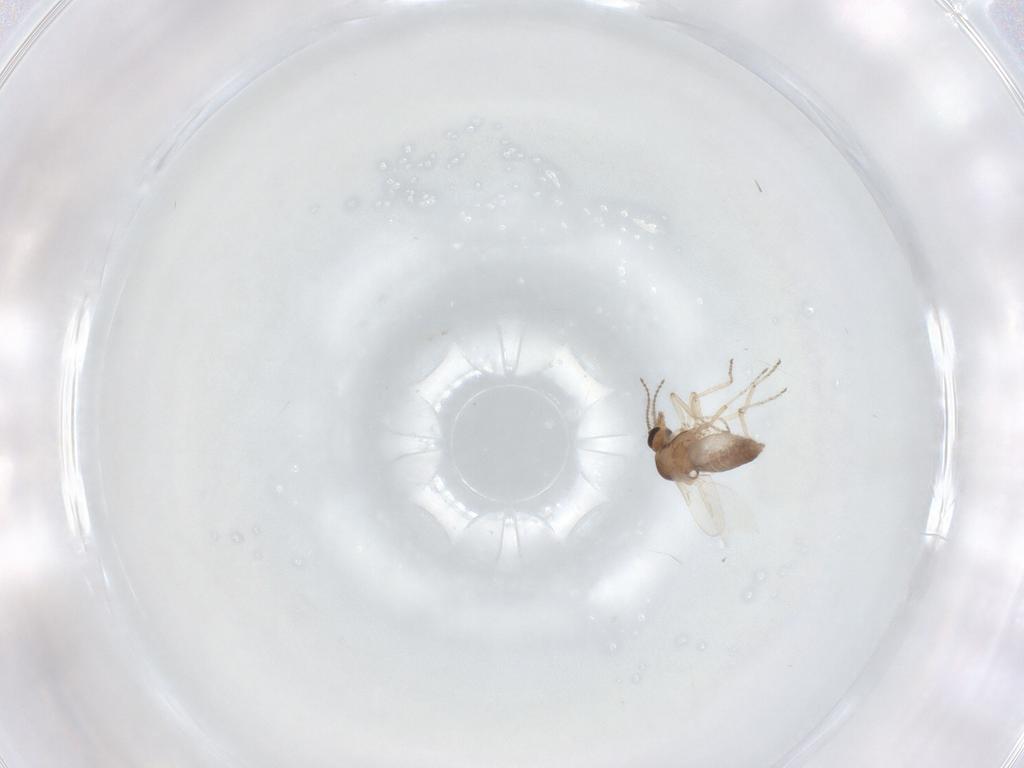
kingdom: Animalia
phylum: Arthropoda
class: Insecta
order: Diptera
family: Ceratopogonidae
